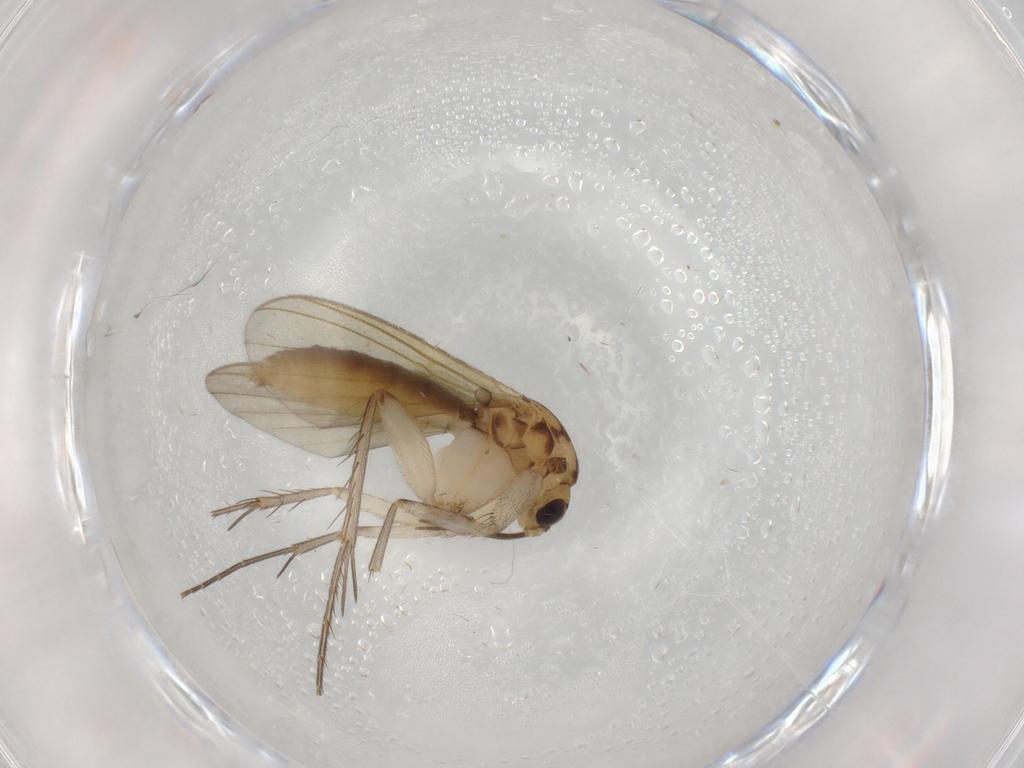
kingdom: Animalia
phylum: Arthropoda
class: Insecta
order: Diptera
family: Mycetophilidae
